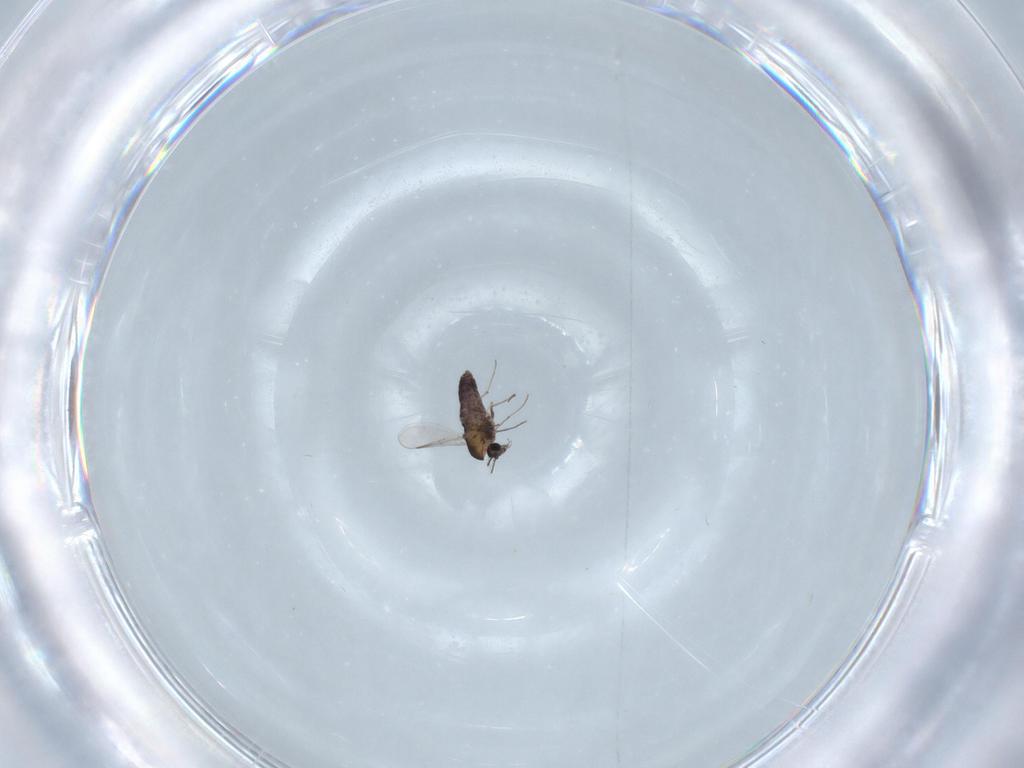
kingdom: Animalia
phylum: Arthropoda
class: Insecta
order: Diptera
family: Chironomidae
